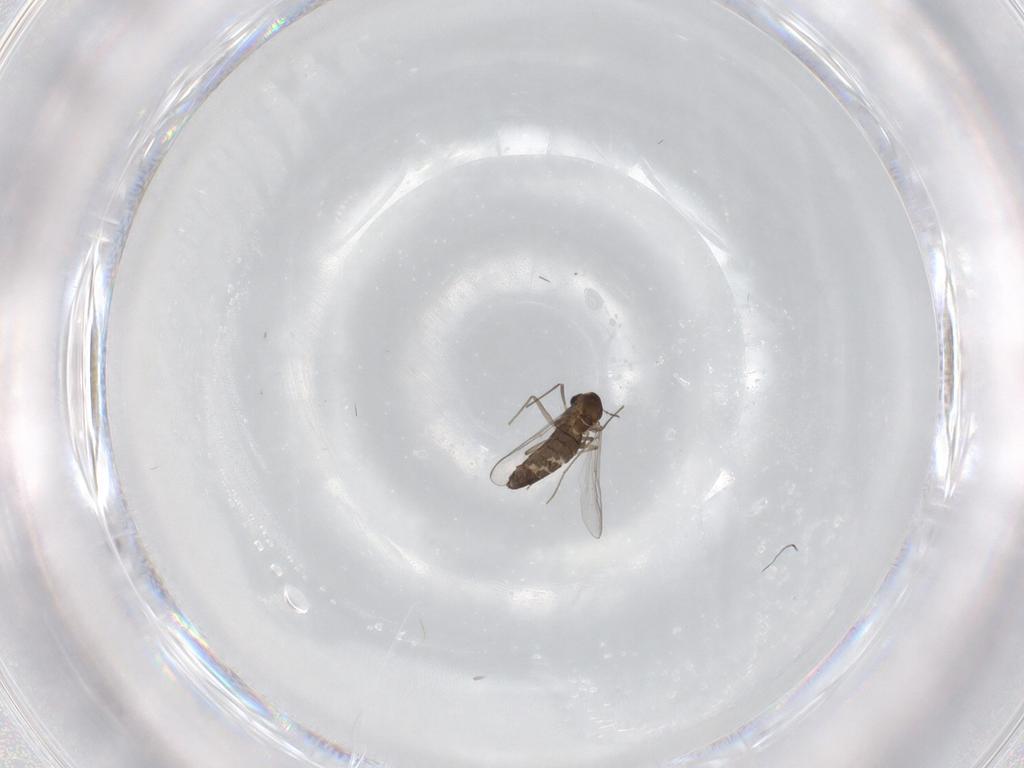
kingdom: Animalia
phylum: Arthropoda
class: Insecta
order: Diptera
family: Chironomidae
